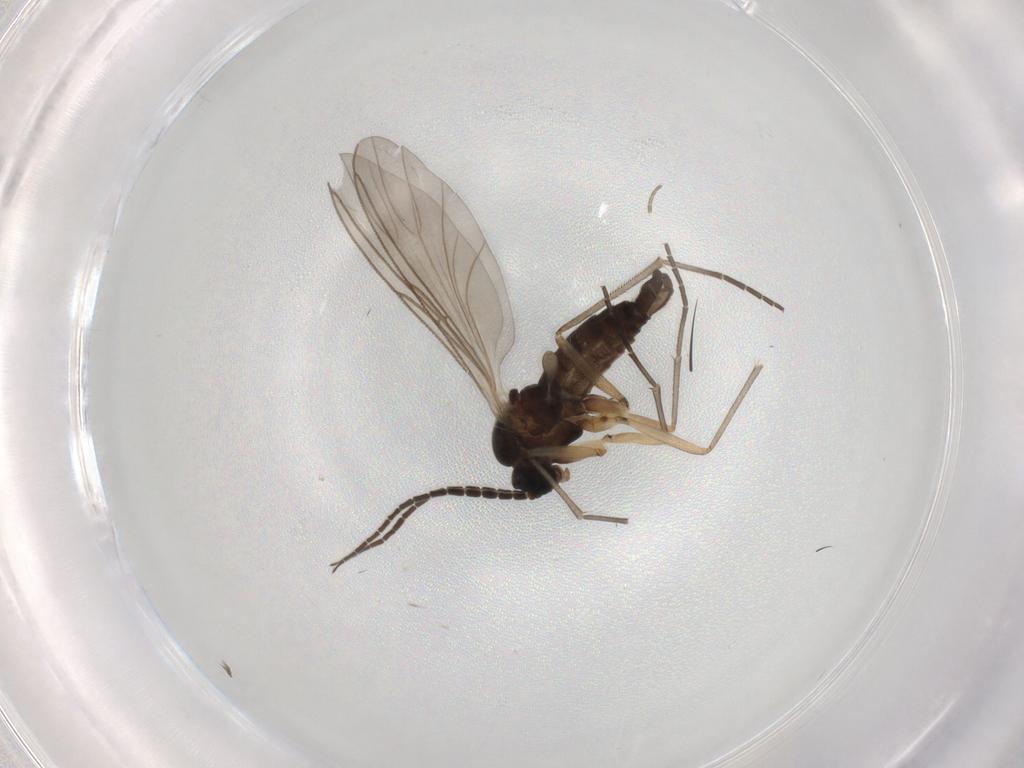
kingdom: Animalia
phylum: Arthropoda
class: Insecta
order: Diptera
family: Sciaridae
